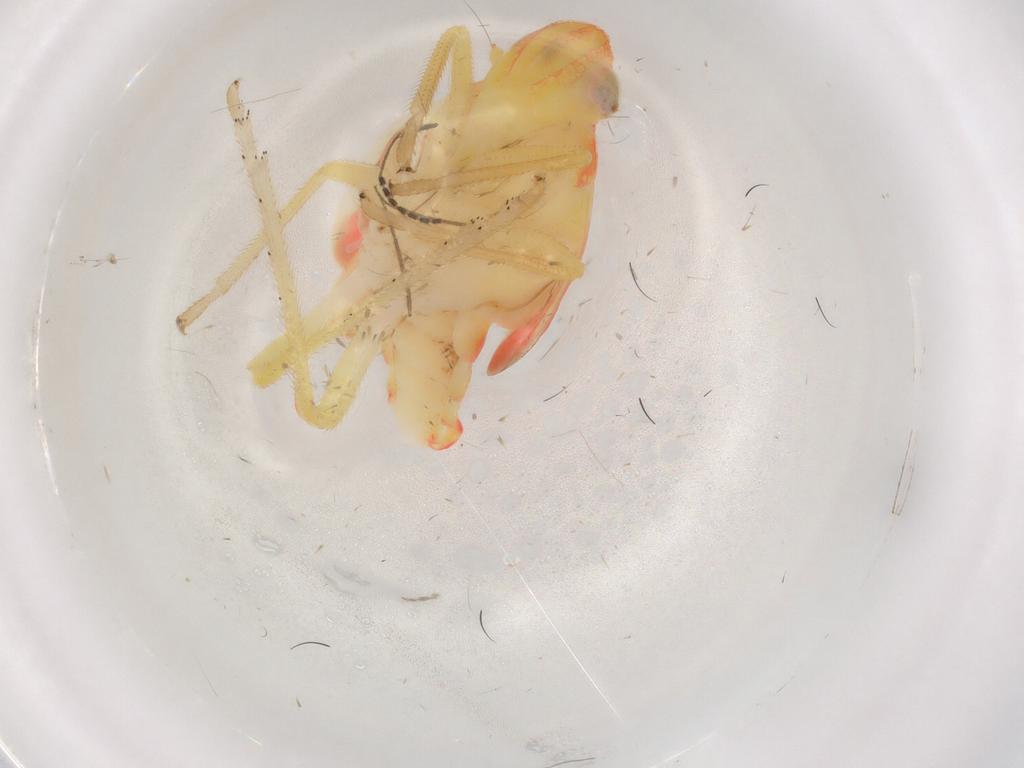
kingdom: Animalia
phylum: Arthropoda
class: Insecta
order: Hemiptera
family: Tropiduchidae
